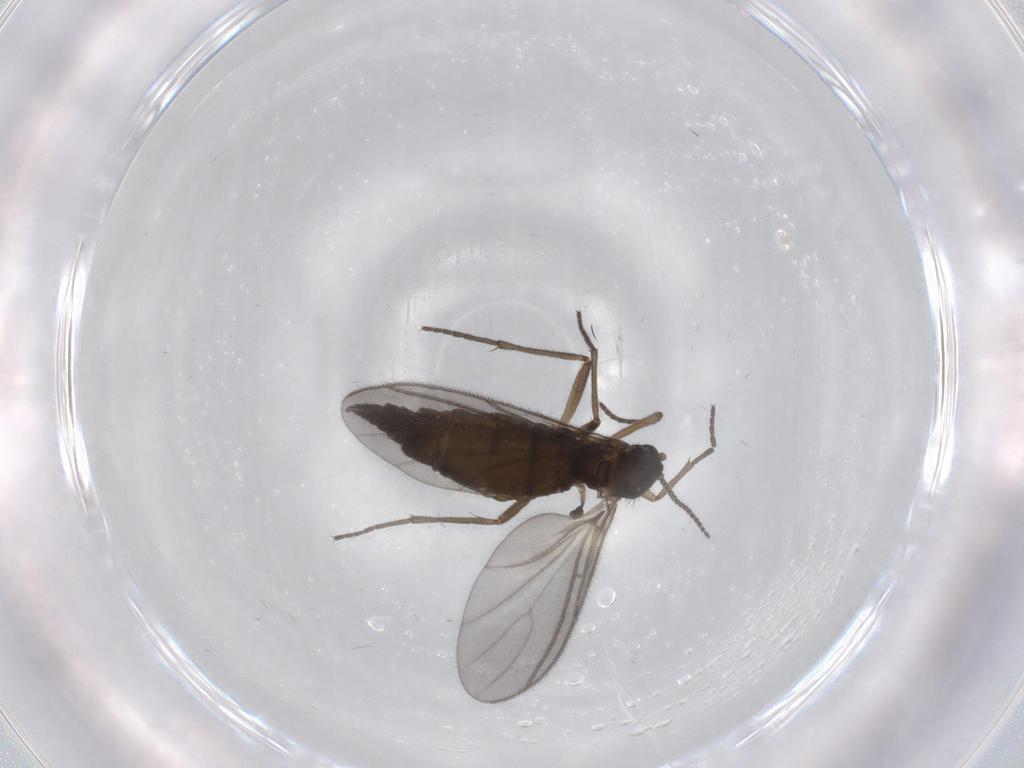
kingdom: Animalia
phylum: Arthropoda
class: Insecta
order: Diptera
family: Sciaridae
